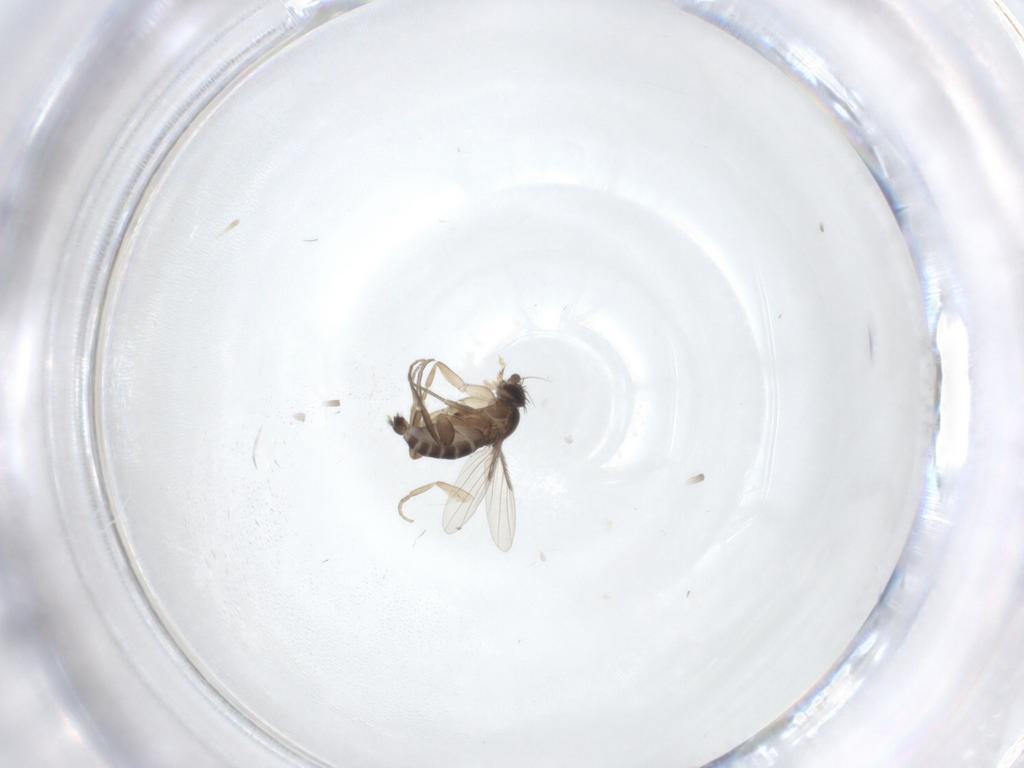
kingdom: Animalia
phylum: Arthropoda
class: Insecta
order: Diptera
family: Phoridae
